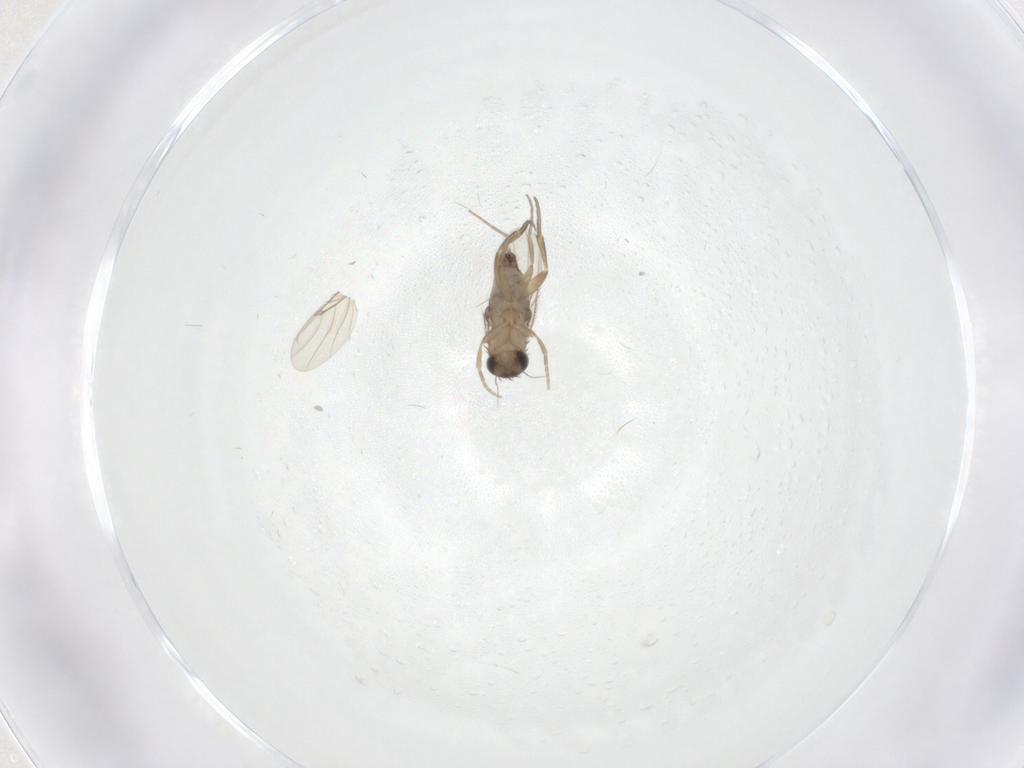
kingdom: Animalia
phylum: Arthropoda
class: Insecta
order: Diptera
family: Phoridae
